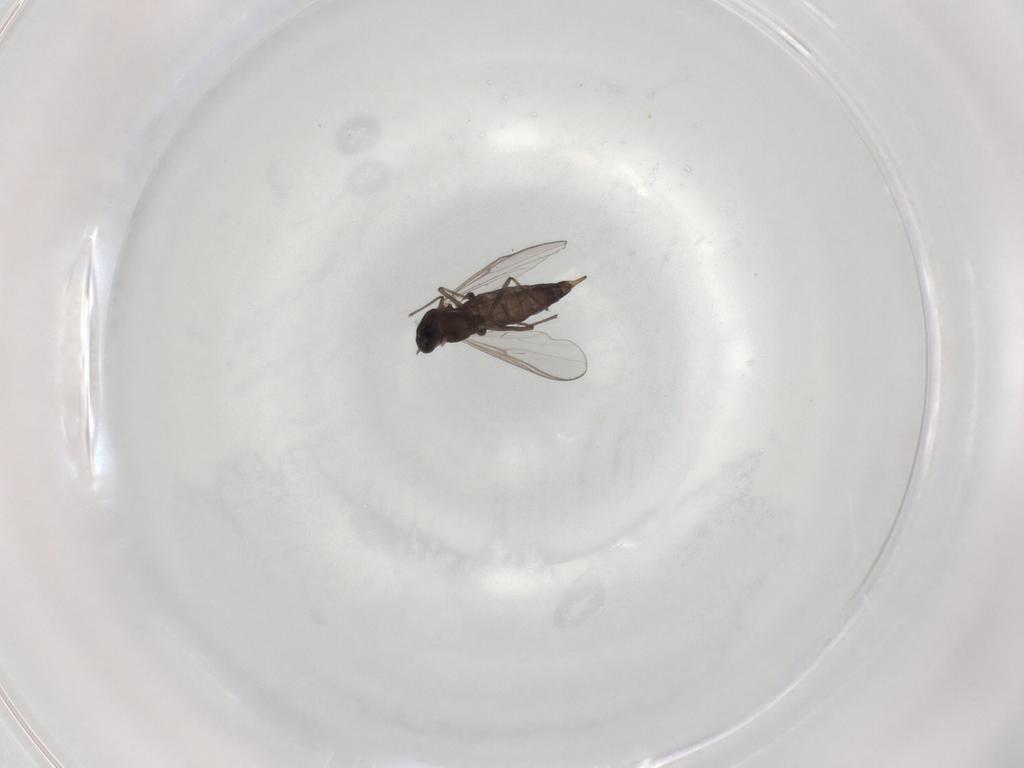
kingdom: Animalia
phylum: Arthropoda
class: Insecta
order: Diptera
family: Chironomidae
